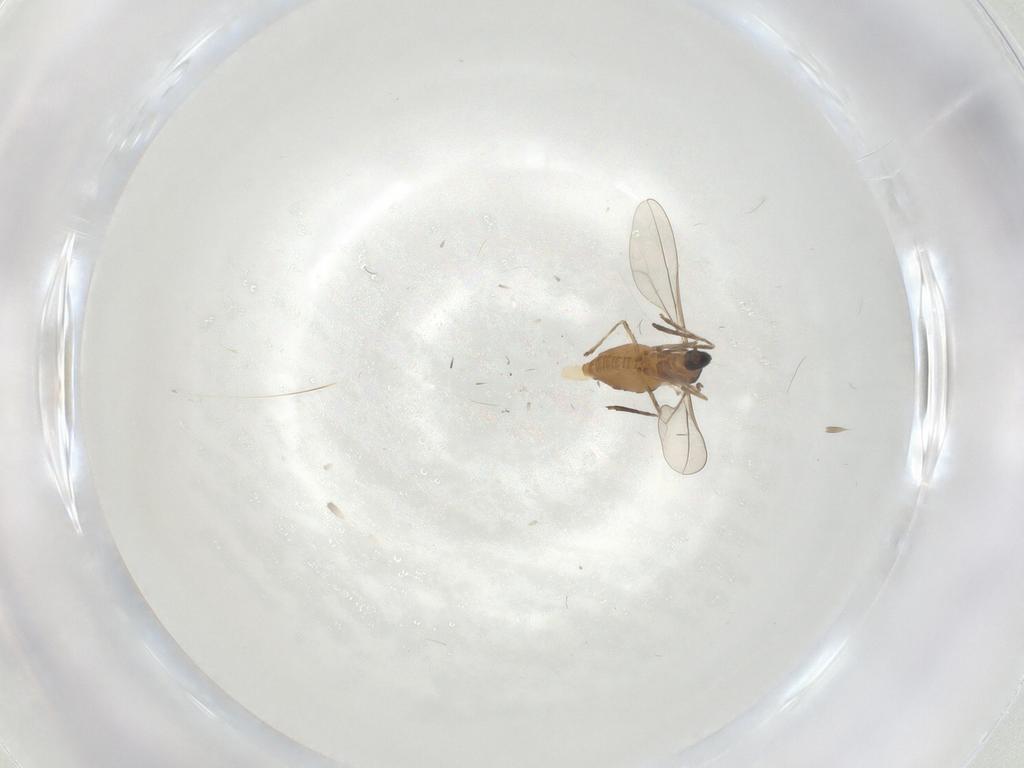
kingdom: Animalia
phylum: Arthropoda
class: Insecta
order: Diptera
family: Cecidomyiidae
